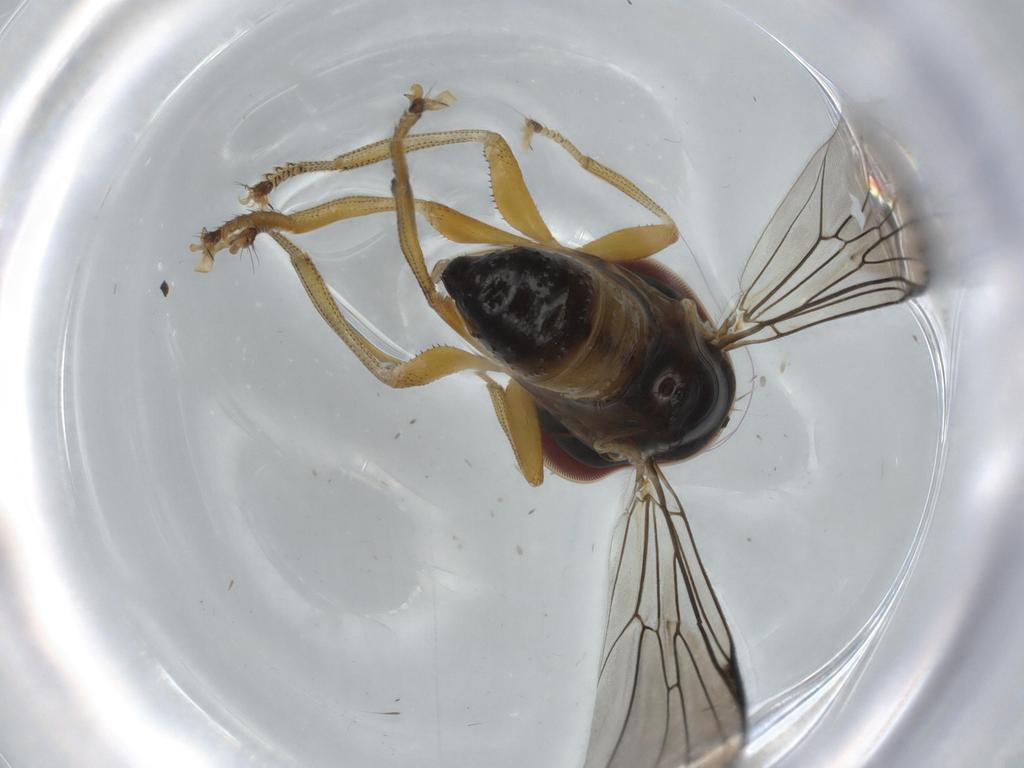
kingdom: Animalia
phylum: Arthropoda
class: Insecta
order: Diptera
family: Pipunculidae
